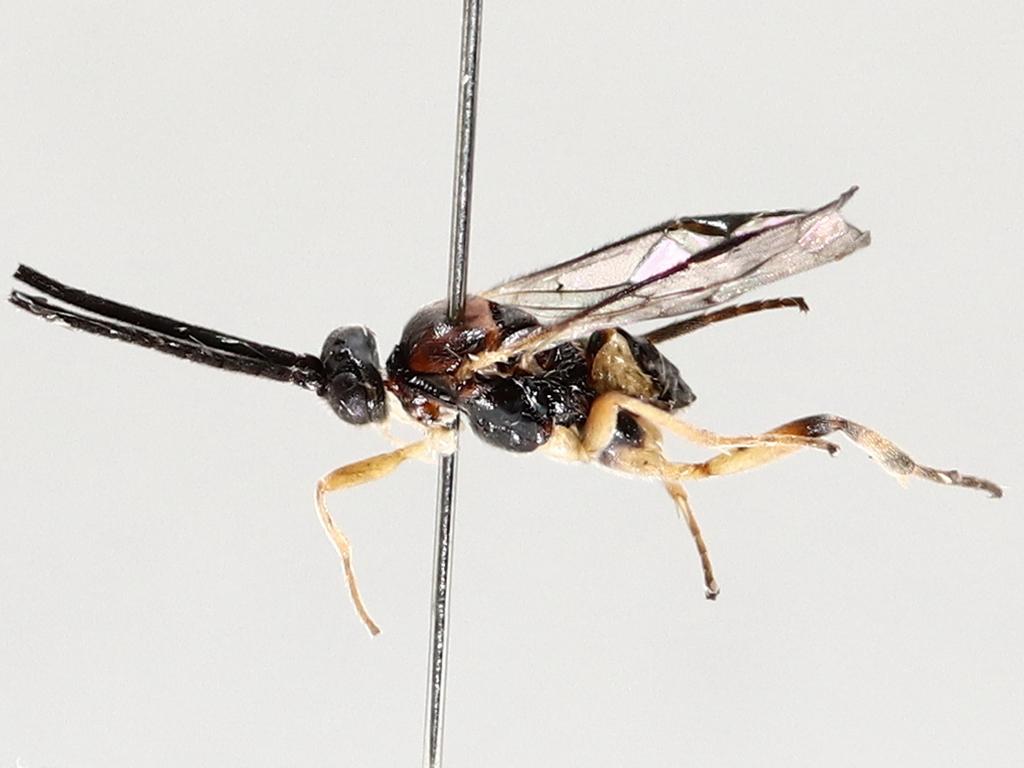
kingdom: Animalia
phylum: Arthropoda
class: Insecta
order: Diptera
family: Chironomidae
